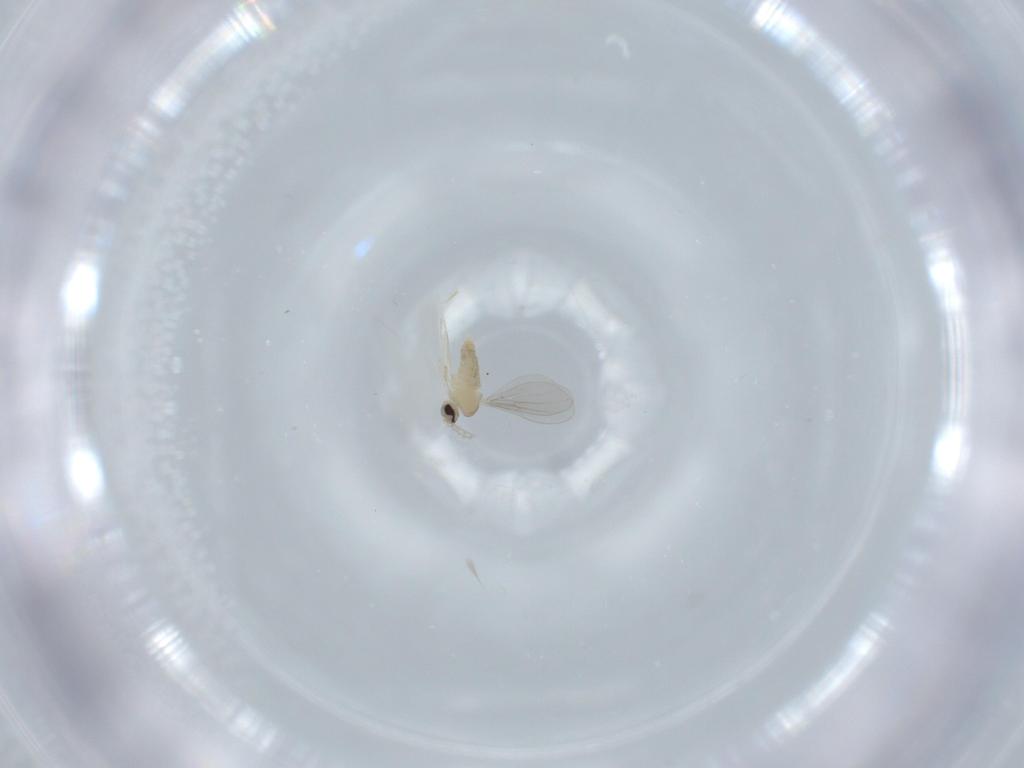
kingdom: Animalia
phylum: Arthropoda
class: Insecta
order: Diptera
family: Cecidomyiidae
